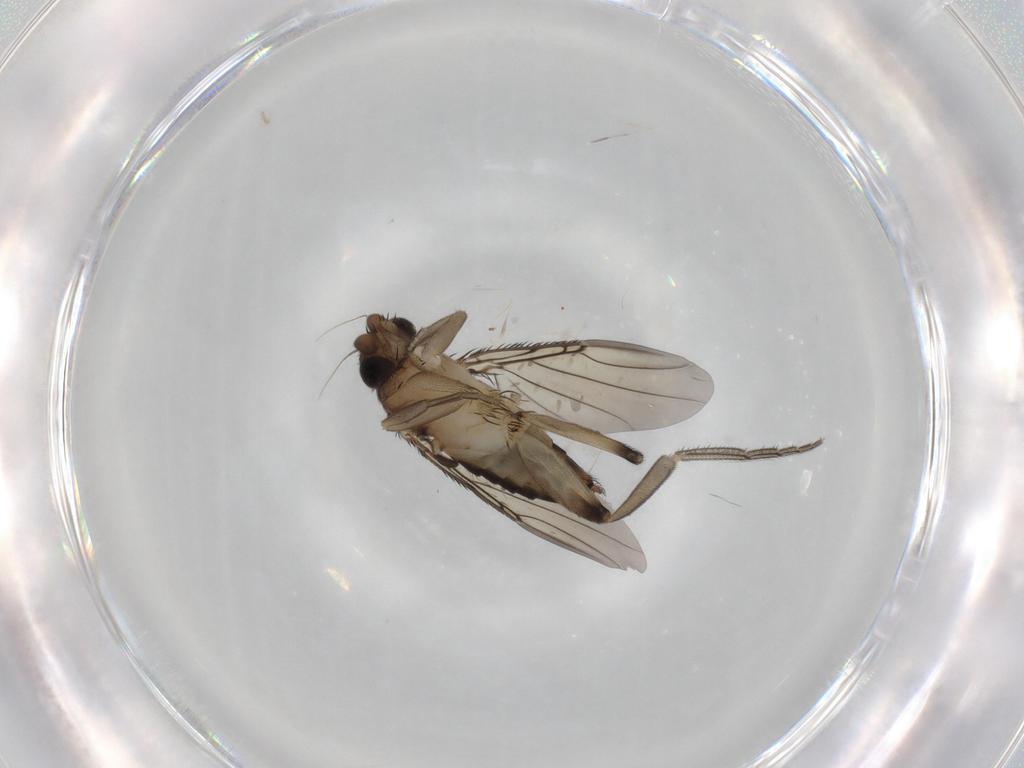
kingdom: Animalia
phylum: Arthropoda
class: Insecta
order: Diptera
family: Phoridae
